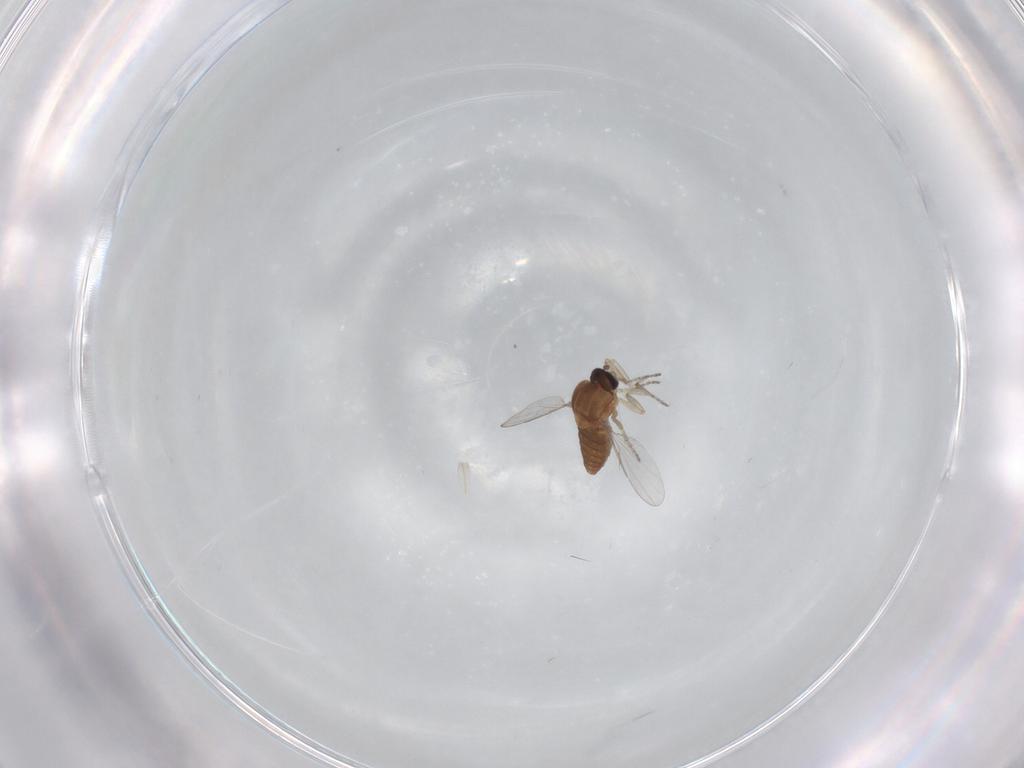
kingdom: Animalia
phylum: Arthropoda
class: Insecta
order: Diptera
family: Ceratopogonidae
